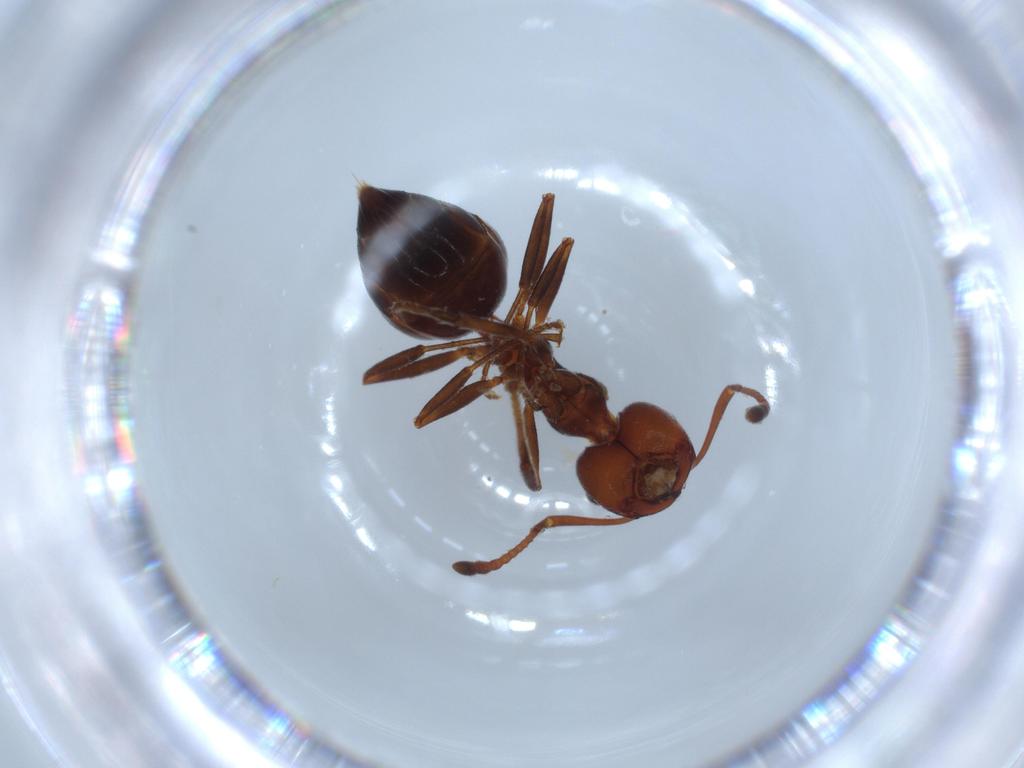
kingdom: Animalia
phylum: Arthropoda
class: Insecta
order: Hymenoptera
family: Formicidae
